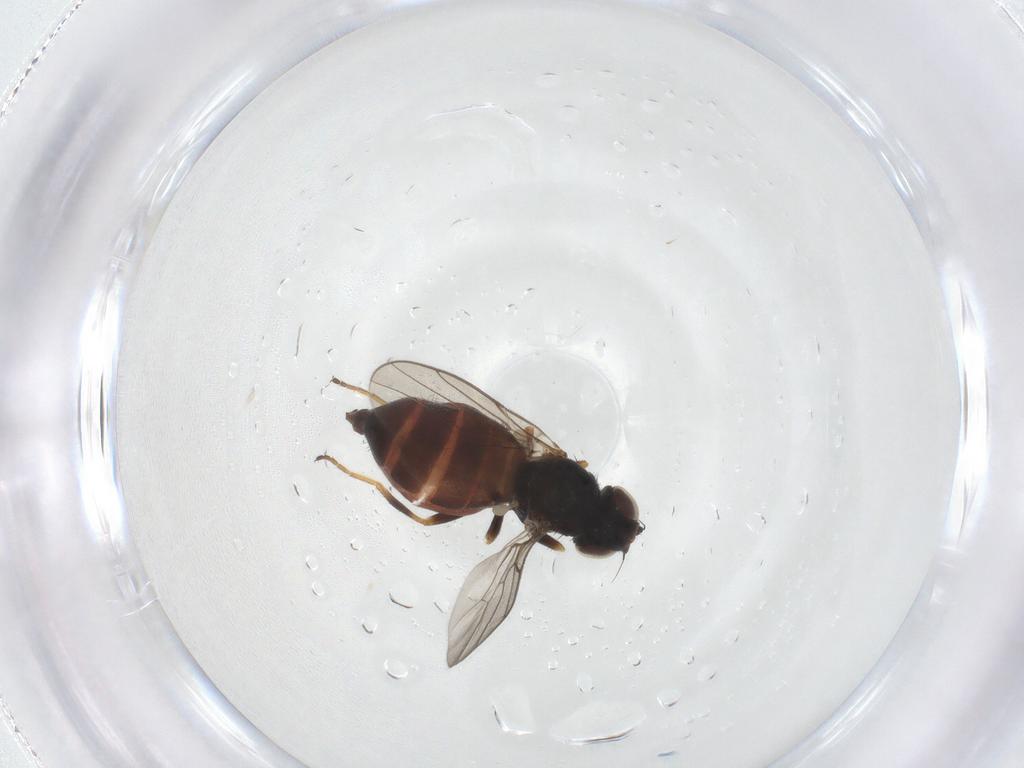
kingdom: Animalia
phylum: Arthropoda
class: Insecta
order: Diptera
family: Chloropidae
